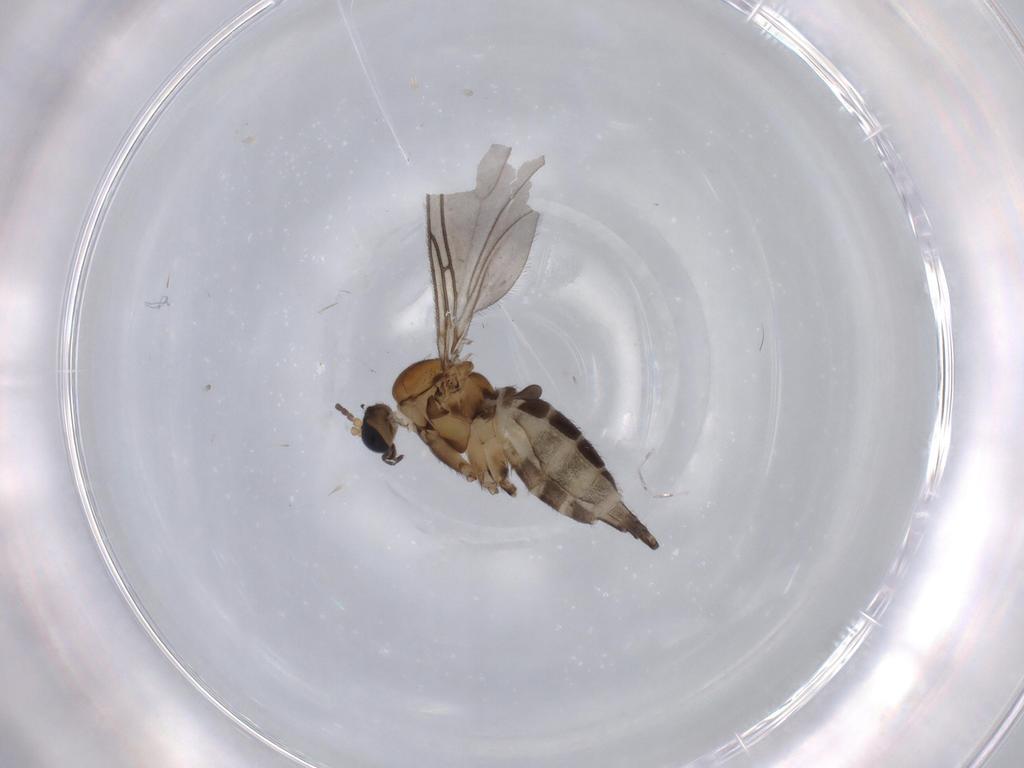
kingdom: Animalia
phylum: Arthropoda
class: Insecta
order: Diptera
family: Sciaridae
